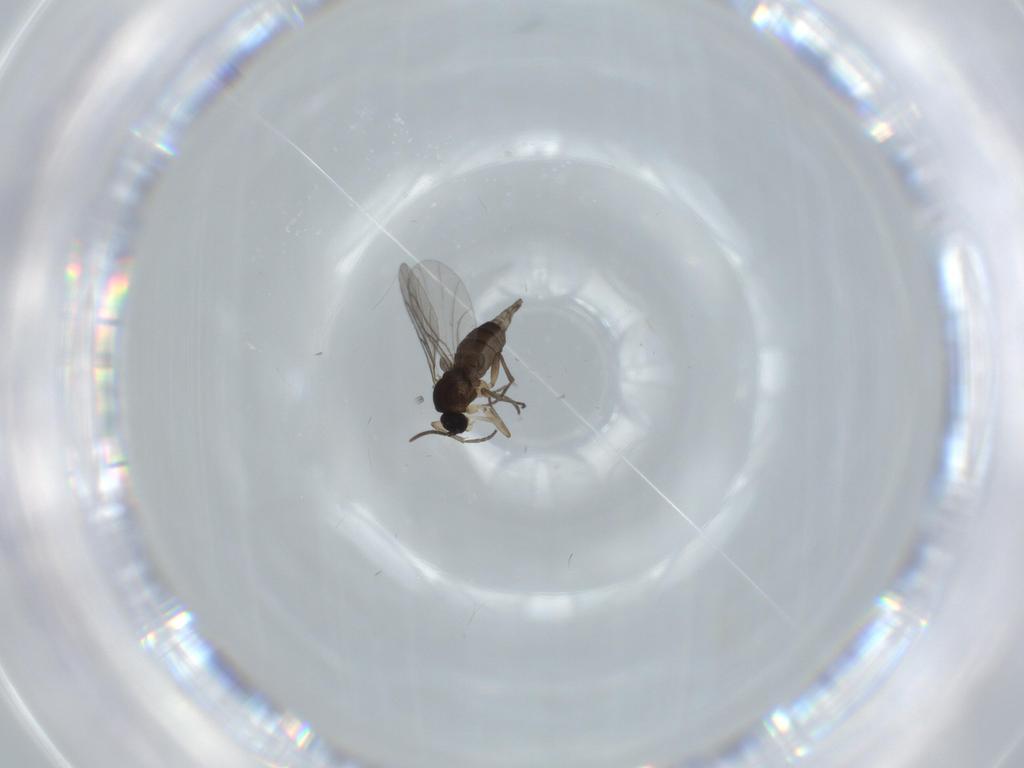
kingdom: Animalia
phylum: Arthropoda
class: Insecta
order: Diptera
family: Sciaridae
